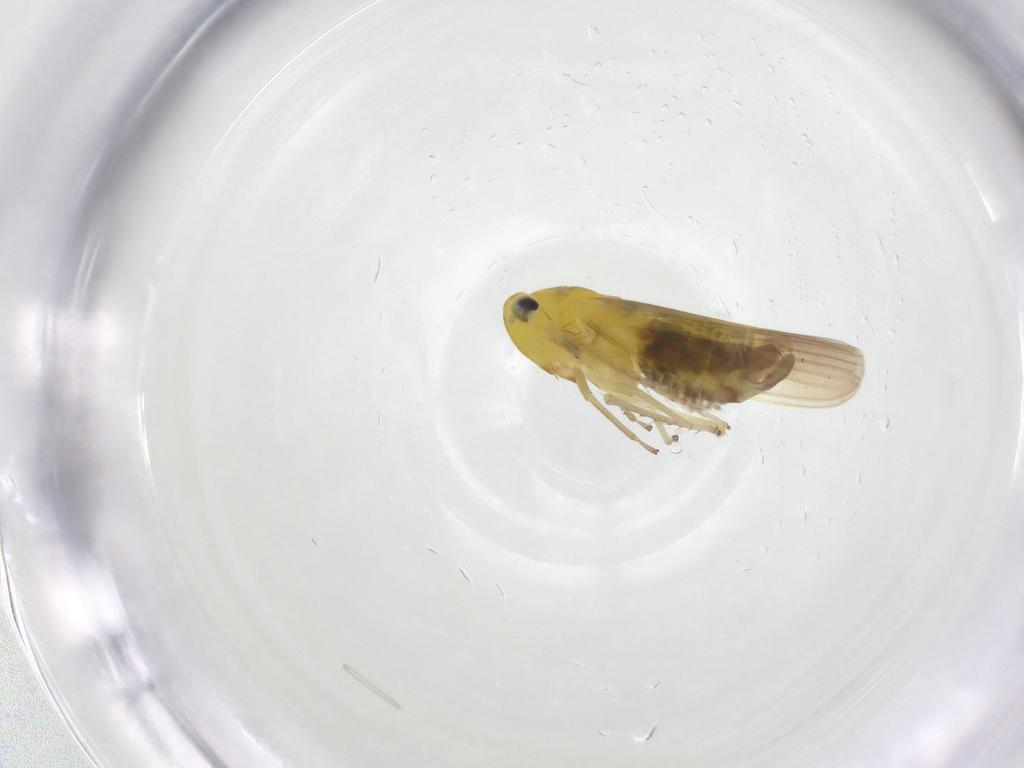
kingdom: Animalia
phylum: Arthropoda
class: Insecta
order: Hemiptera
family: Cicadellidae
